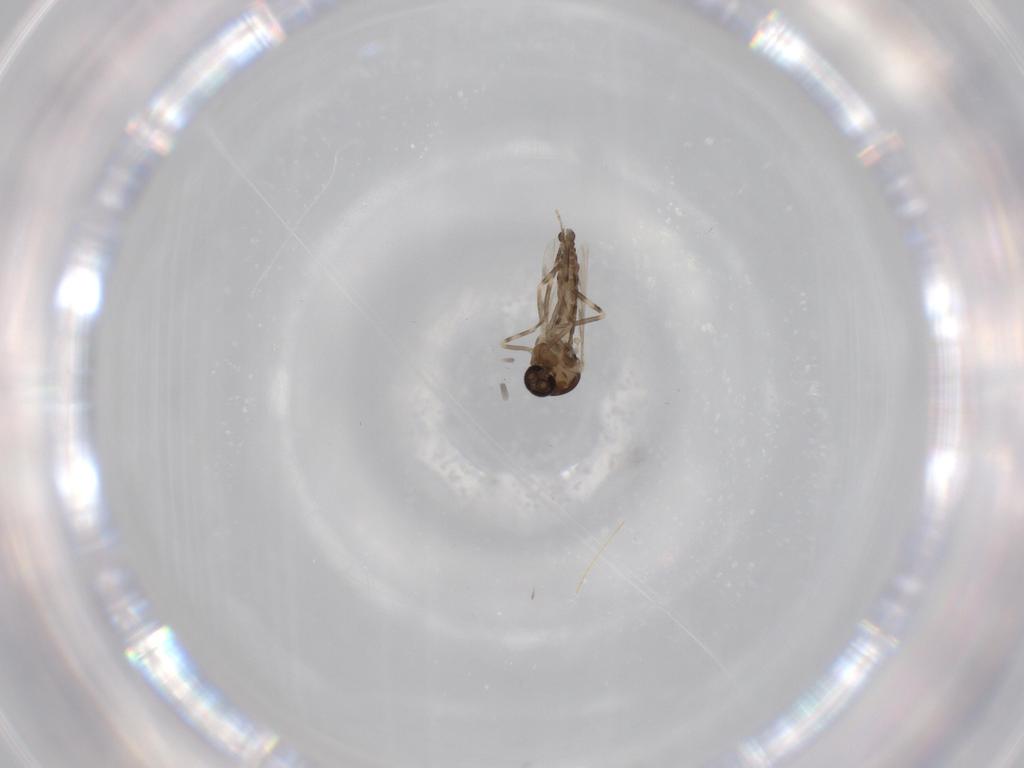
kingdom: Animalia
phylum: Arthropoda
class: Insecta
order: Diptera
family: Ceratopogonidae
